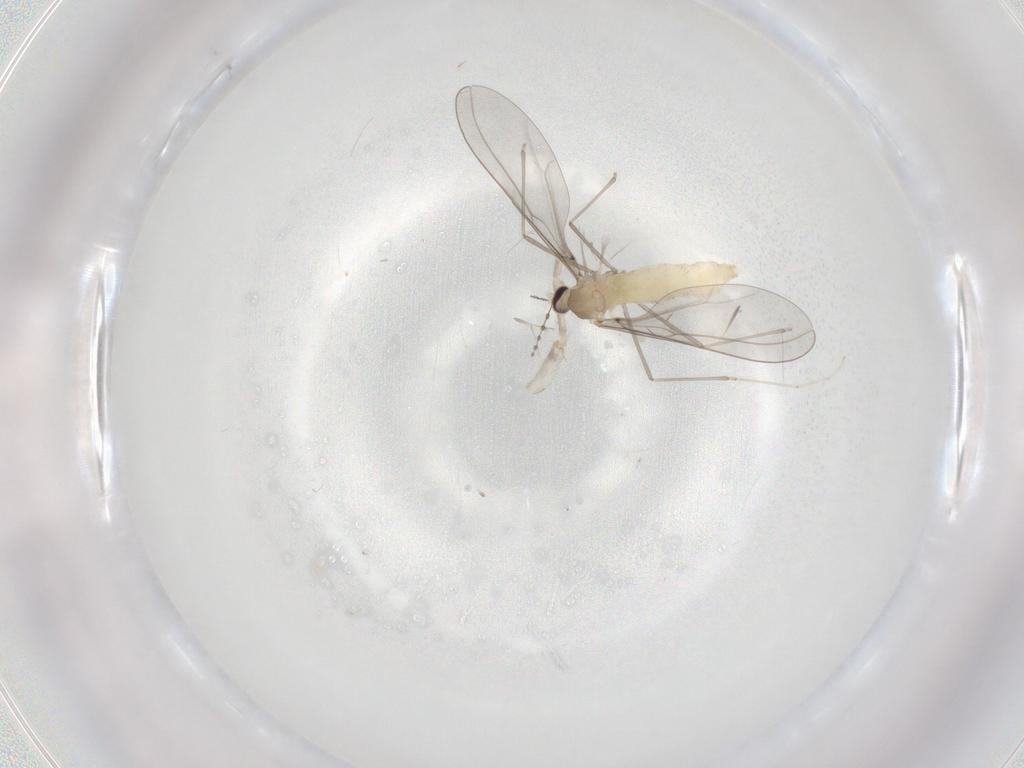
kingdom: Animalia
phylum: Arthropoda
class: Insecta
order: Diptera
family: Cecidomyiidae
